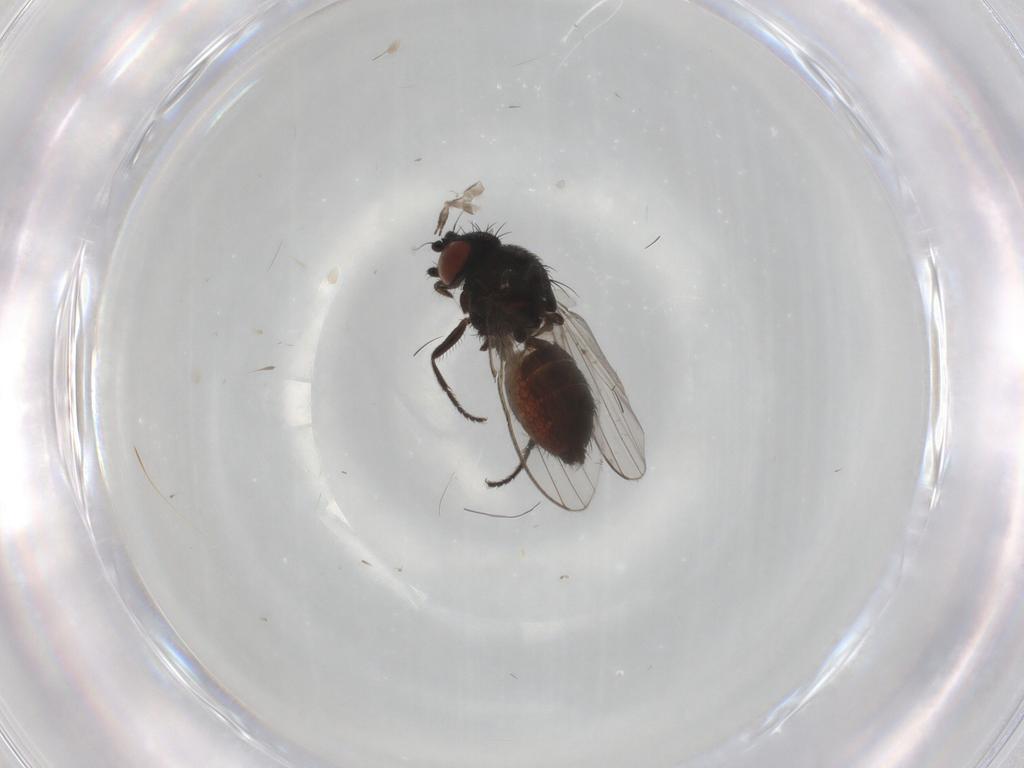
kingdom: Animalia
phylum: Arthropoda
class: Insecta
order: Diptera
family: Milichiidae
